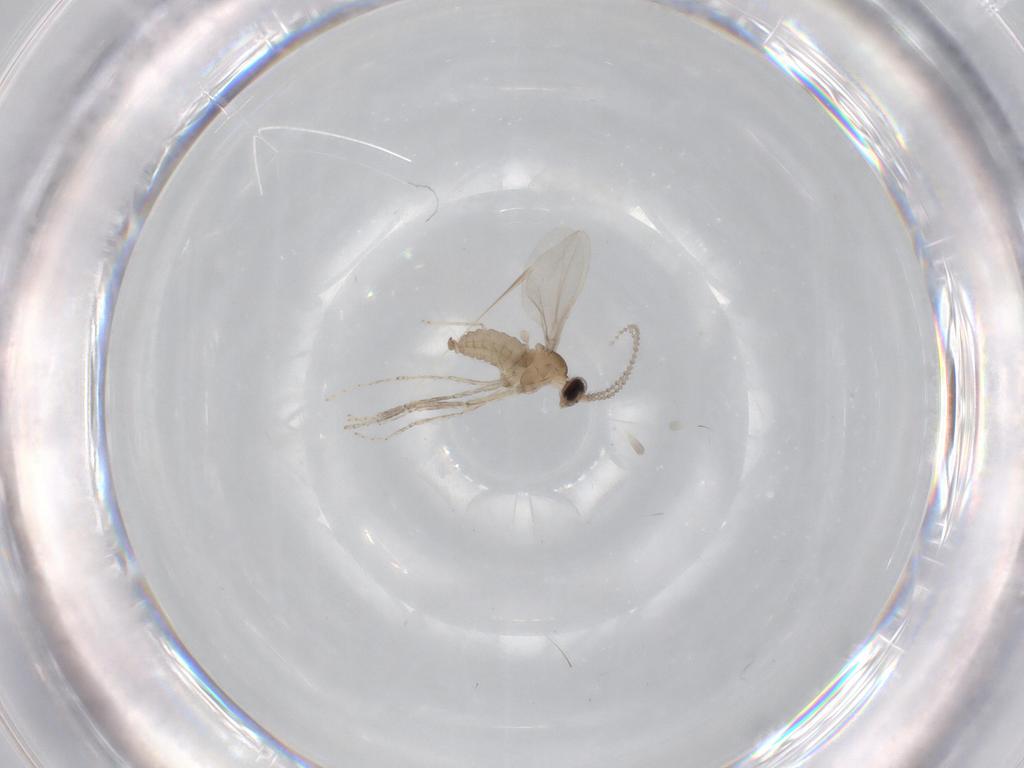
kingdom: Animalia
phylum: Arthropoda
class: Insecta
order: Diptera
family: Cecidomyiidae
